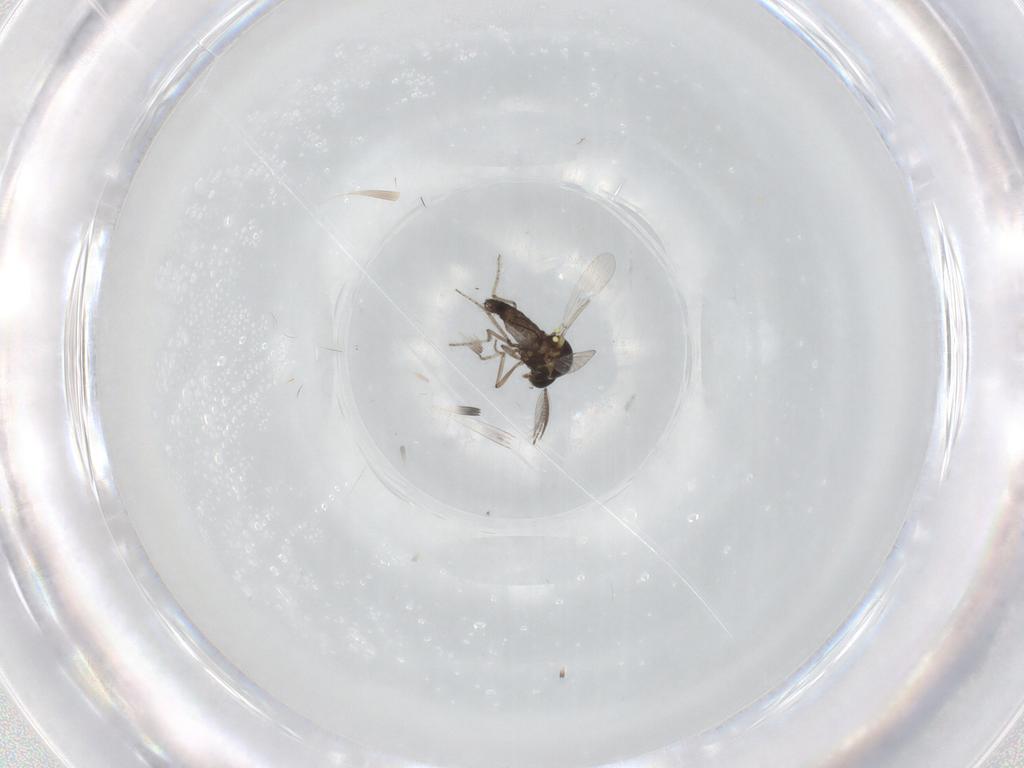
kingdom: Animalia
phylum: Arthropoda
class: Insecta
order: Diptera
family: Ceratopogonidae
